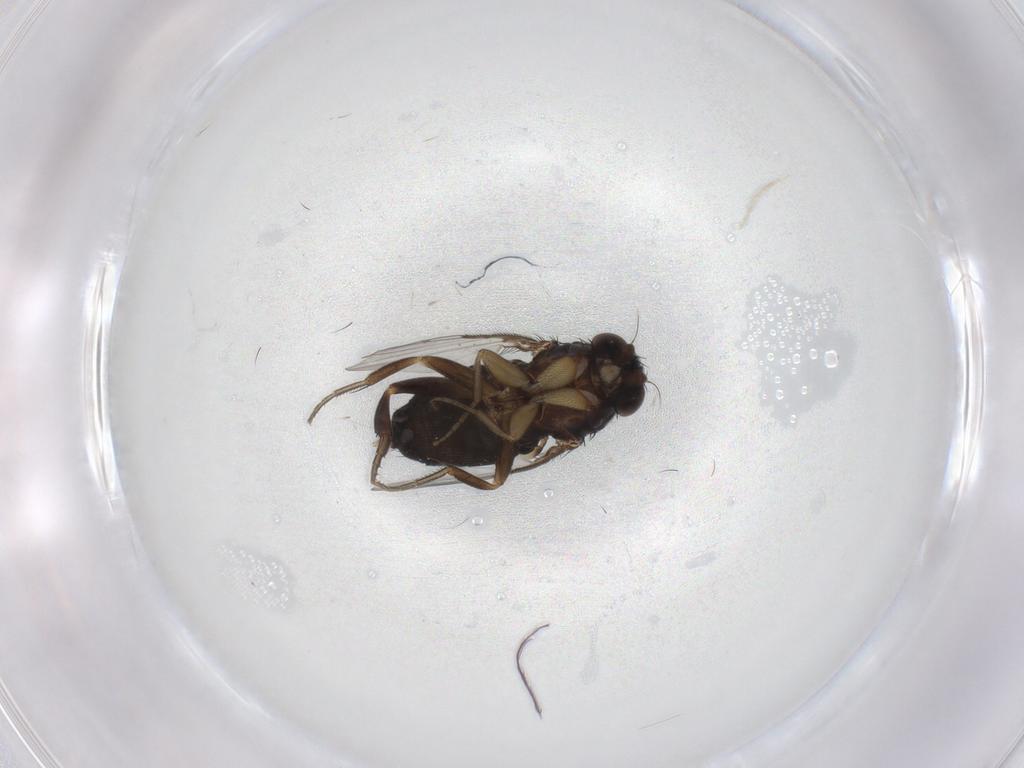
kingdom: Animalia
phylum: Arthropoda
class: Insecta
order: Diptera
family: Phoridae
